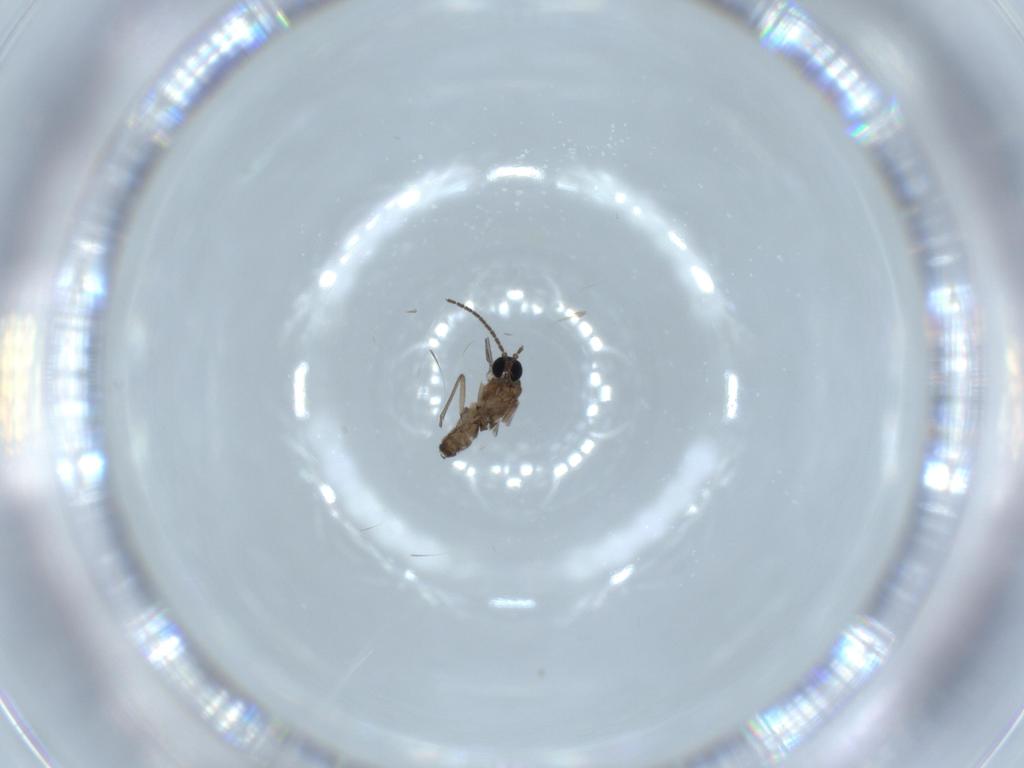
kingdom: Animalia
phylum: Arthropoda
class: Insecta
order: Diptera
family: Sciaridae
